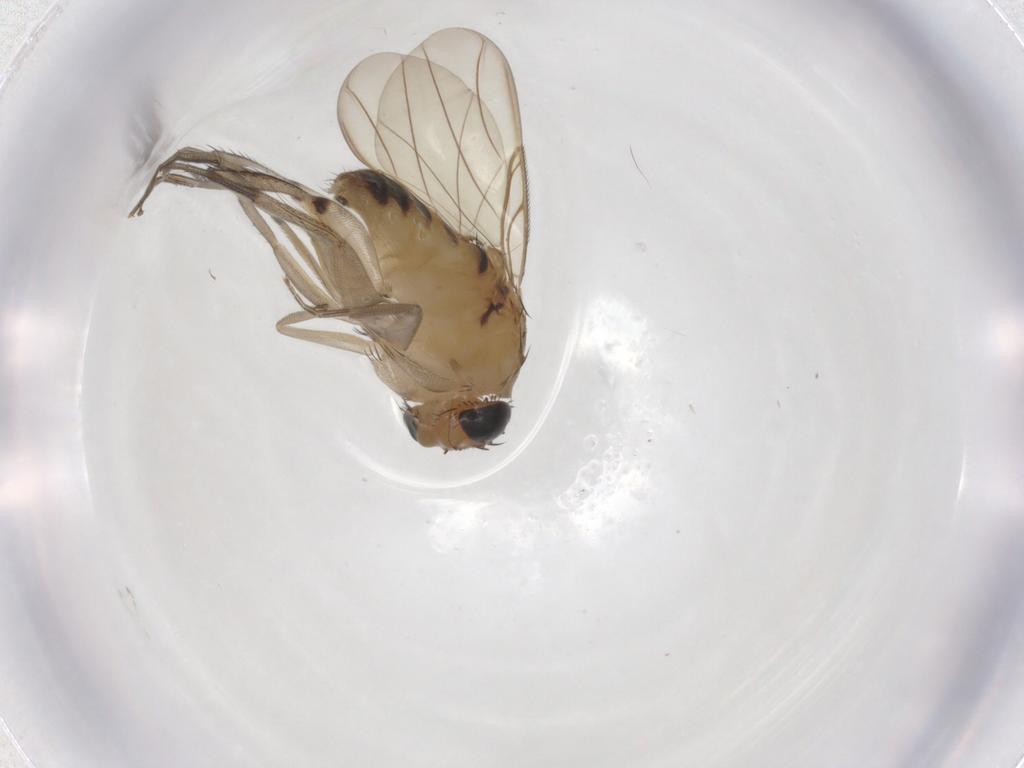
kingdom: Animalia
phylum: Arthropoda
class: Insecta
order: Diptera
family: Phoridae
